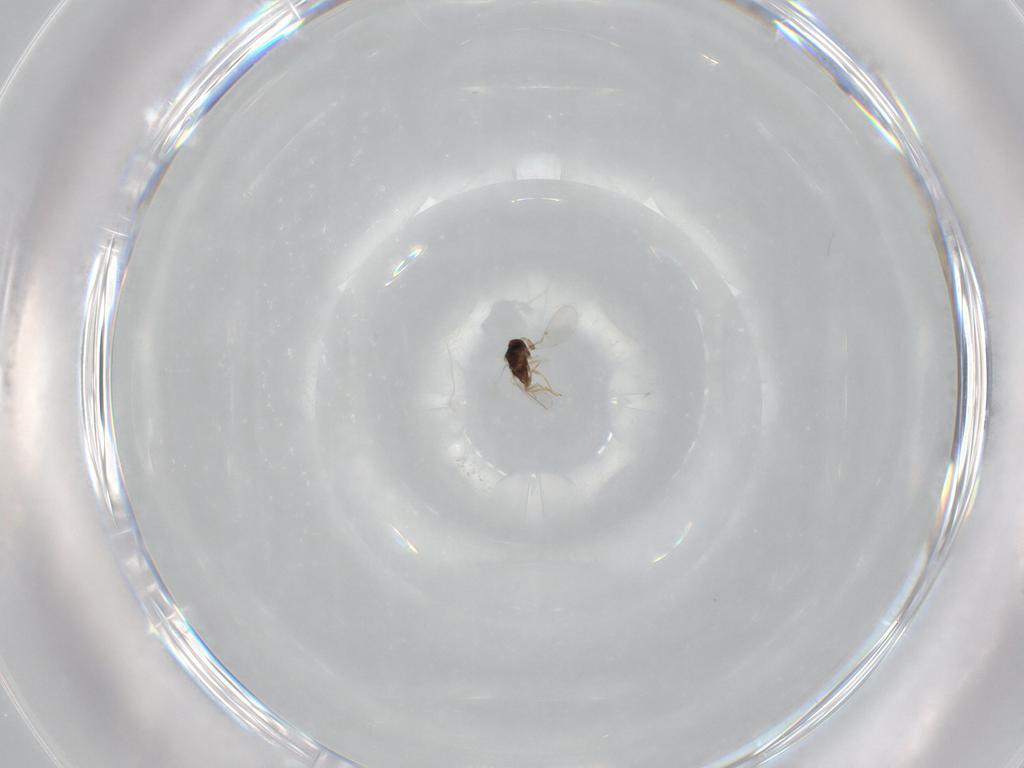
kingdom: Animalia
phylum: Arthropoda
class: Insecta
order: Hymenoptera
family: Encyrtidae
